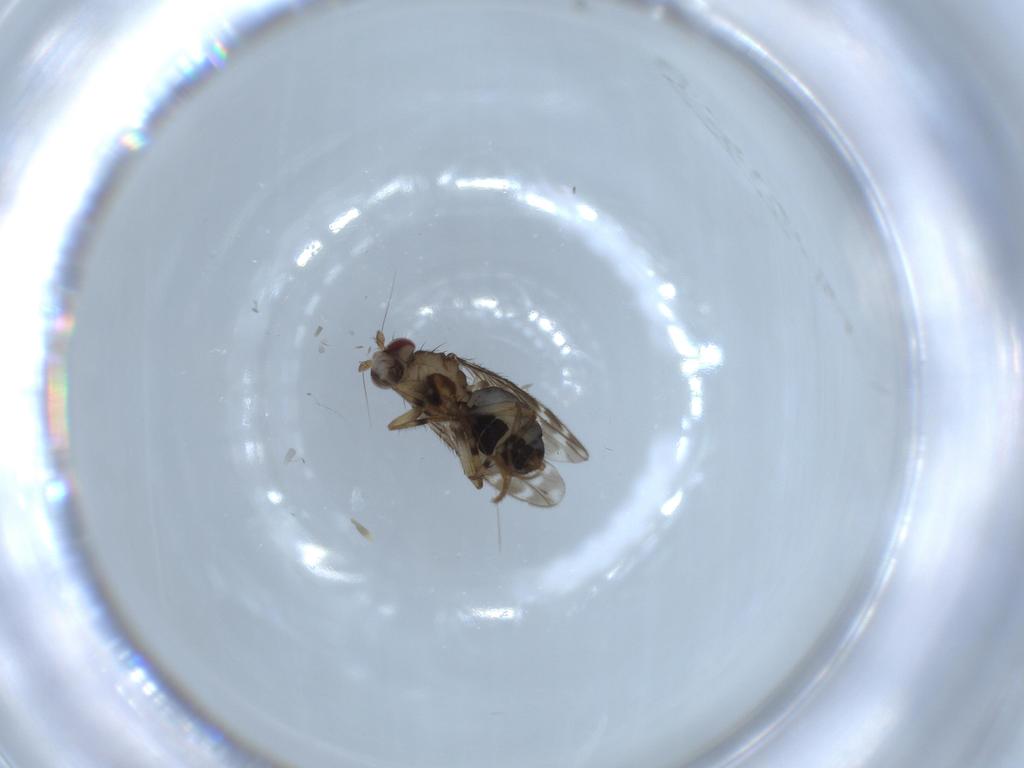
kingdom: Animalia
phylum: Arthropoda
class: Insecta
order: Diptera
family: Sphaeroceridae
